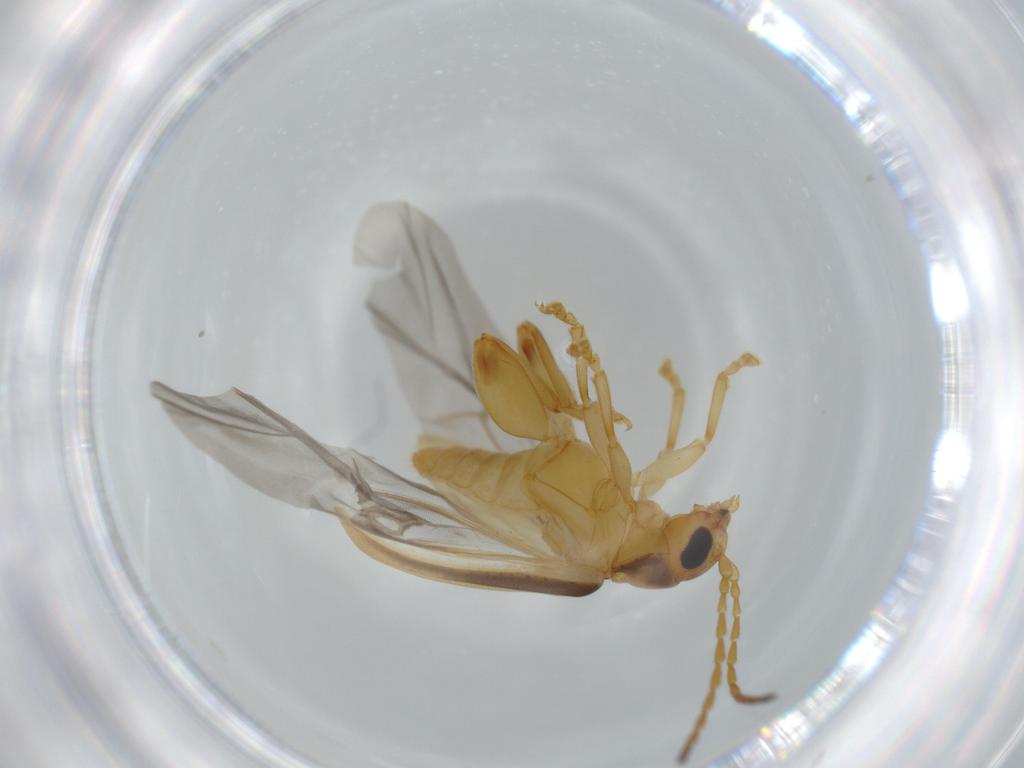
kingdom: Animalia
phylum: Arthropoda
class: Insecta
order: Coleoptera
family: Chrysomelidae
